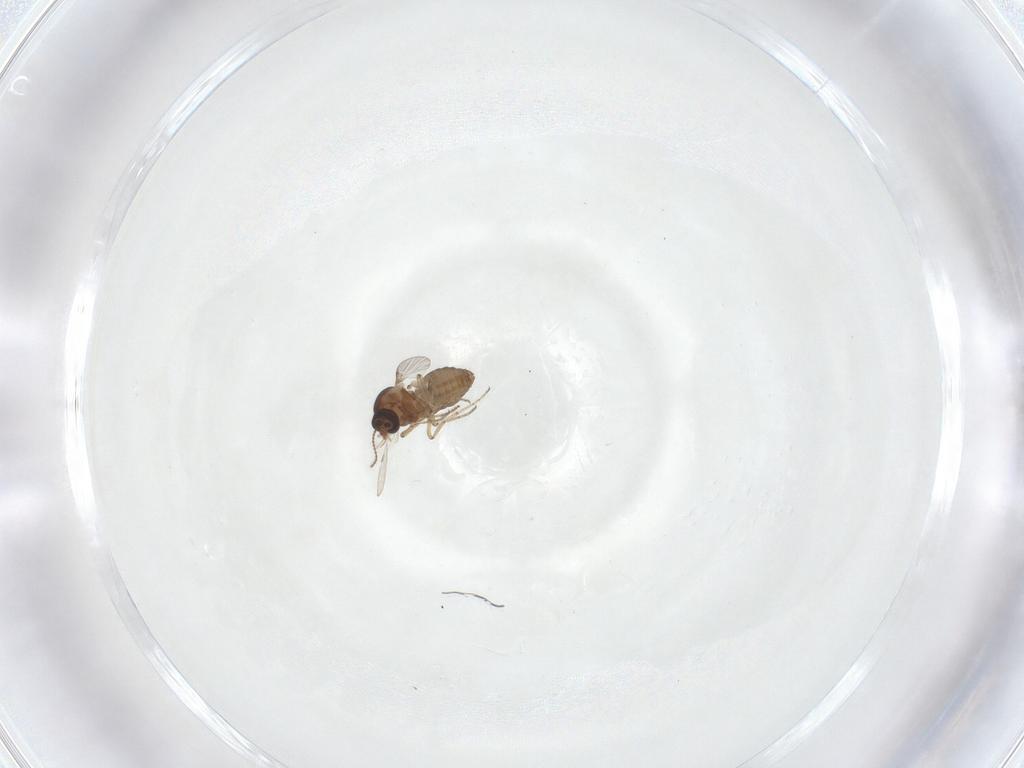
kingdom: Animalia
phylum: Arthropoda
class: Insecta
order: Diptera
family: Ceratopogonidae
